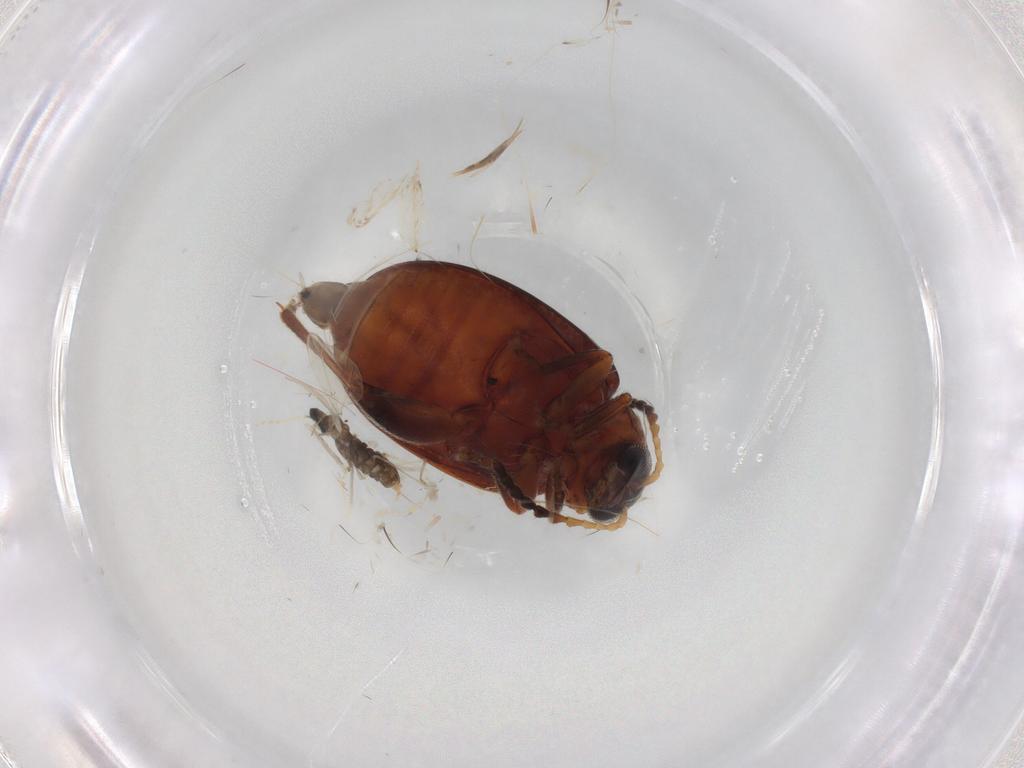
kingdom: Animalia
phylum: Arthropoda
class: Insecta
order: Coleoptera
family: Chrysomelidae
